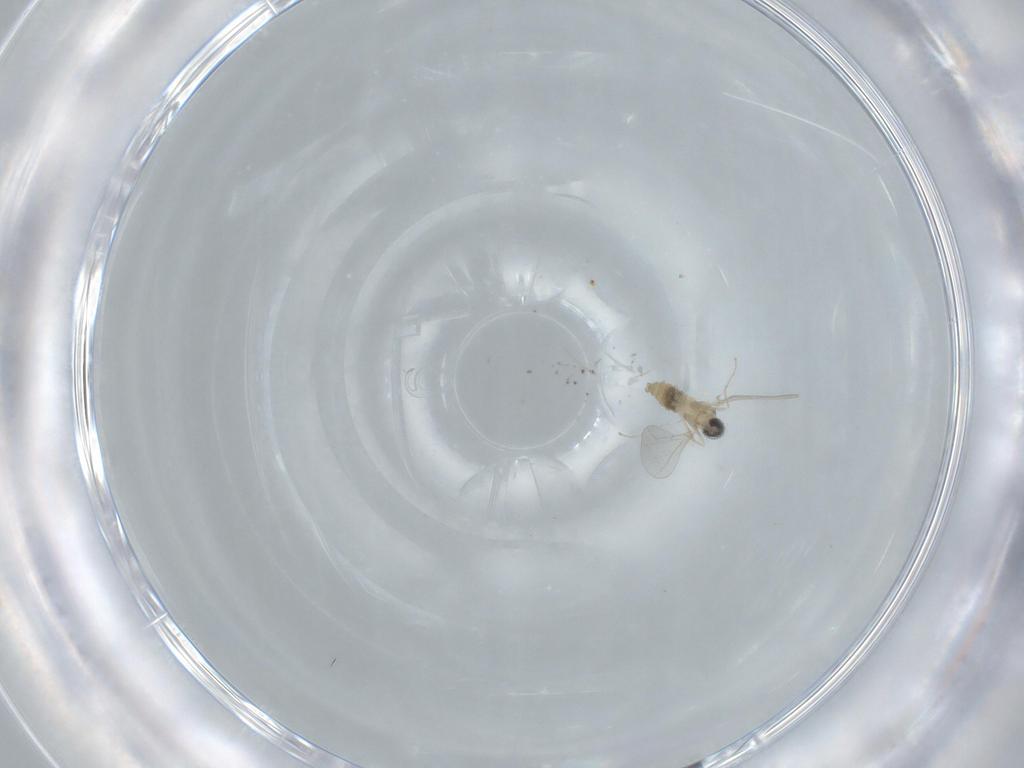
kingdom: Animalia
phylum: Arthropoda
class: Insecta
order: Diptera
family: Cecidomyiidae
